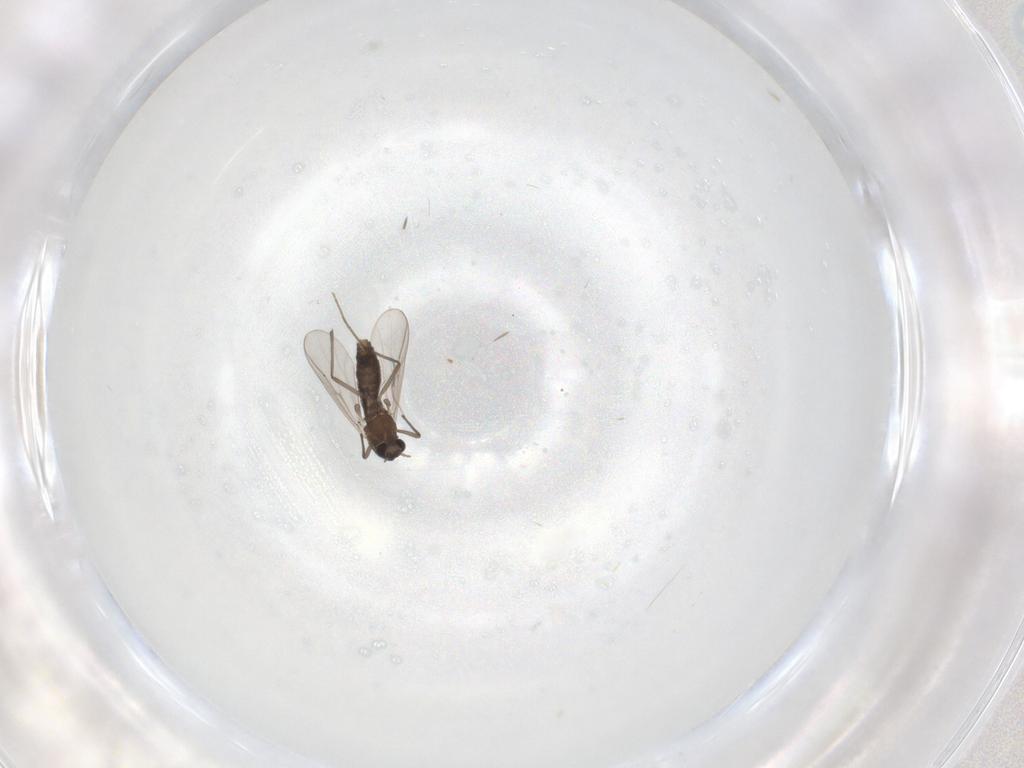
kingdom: Animalia
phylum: Arthropoda
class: Insecta
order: Diptera
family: Chironomidae
